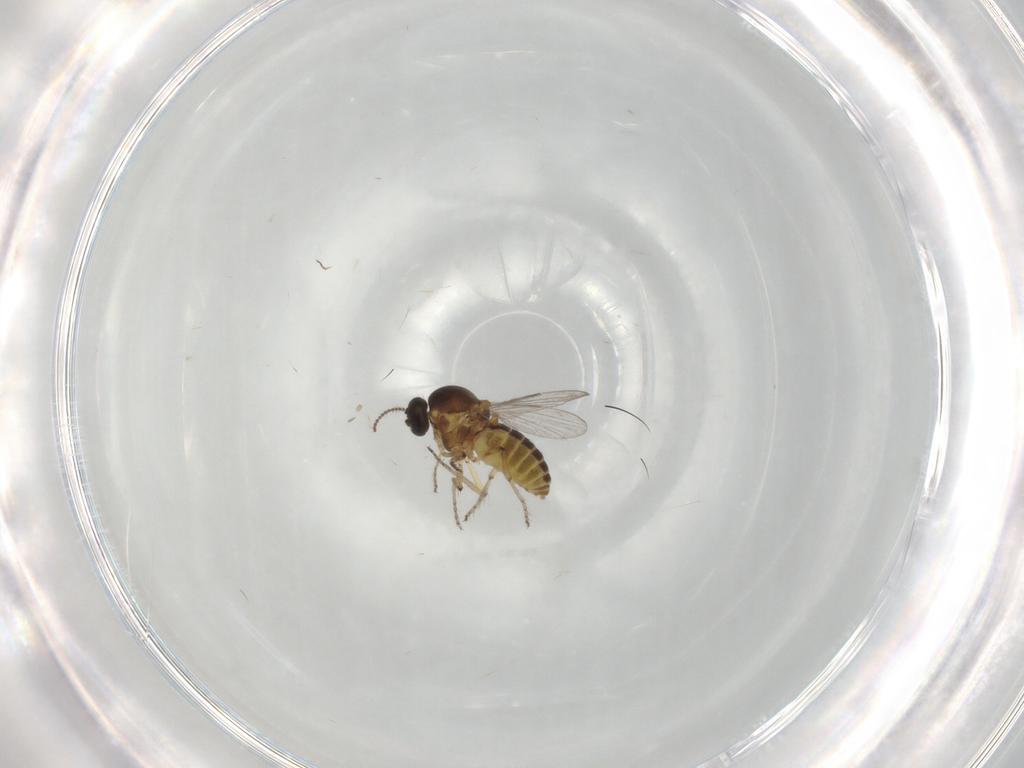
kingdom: Animalia
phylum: Arthropoda
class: Insecta
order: Diptera
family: Ceratopogonidae
